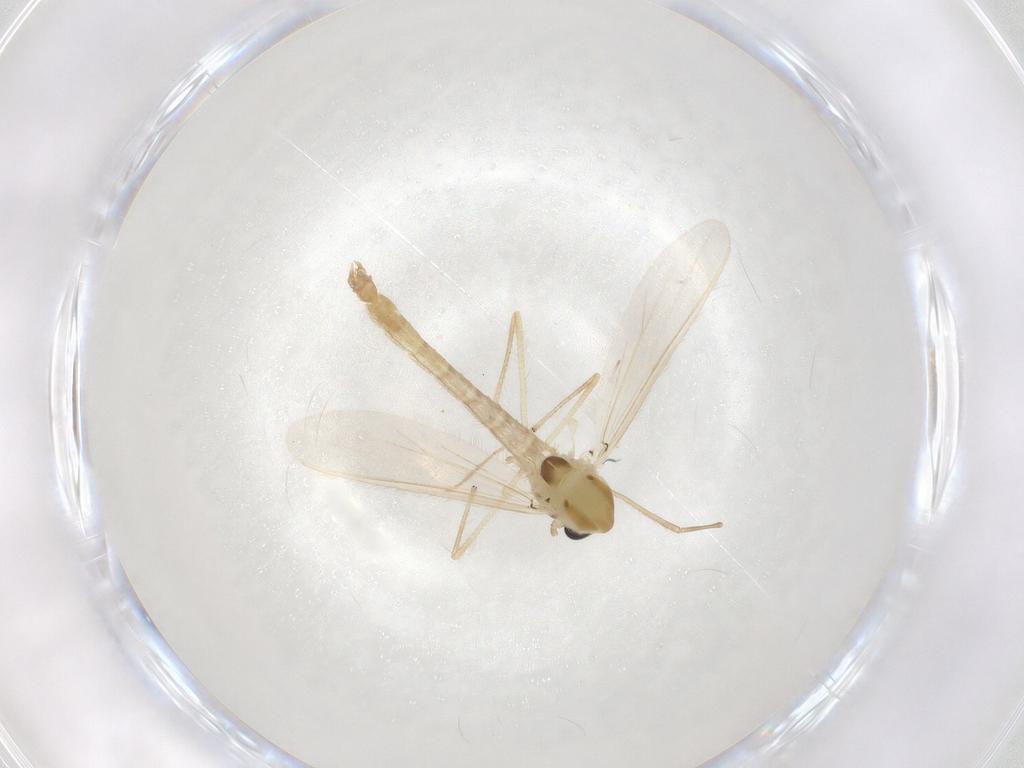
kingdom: Animalia
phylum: Arthropoda
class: Insecta
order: Diptera
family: Chironomidae
